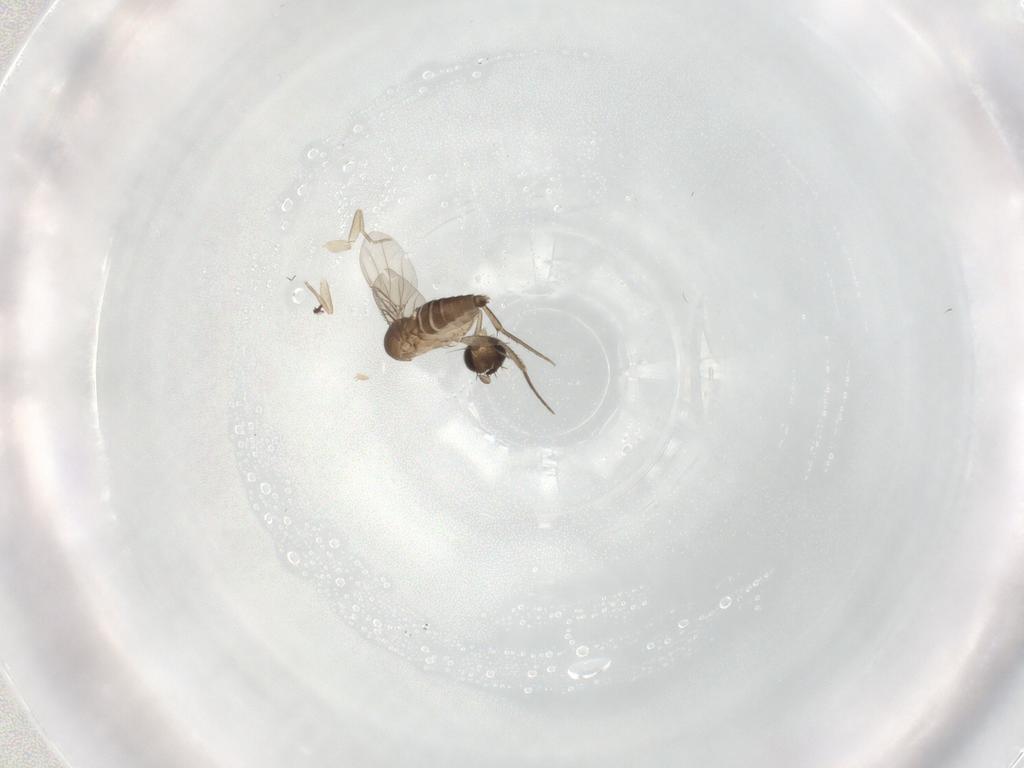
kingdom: Animalia
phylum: Arthropoda
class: Insecta
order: Diptera
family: Phoridae
